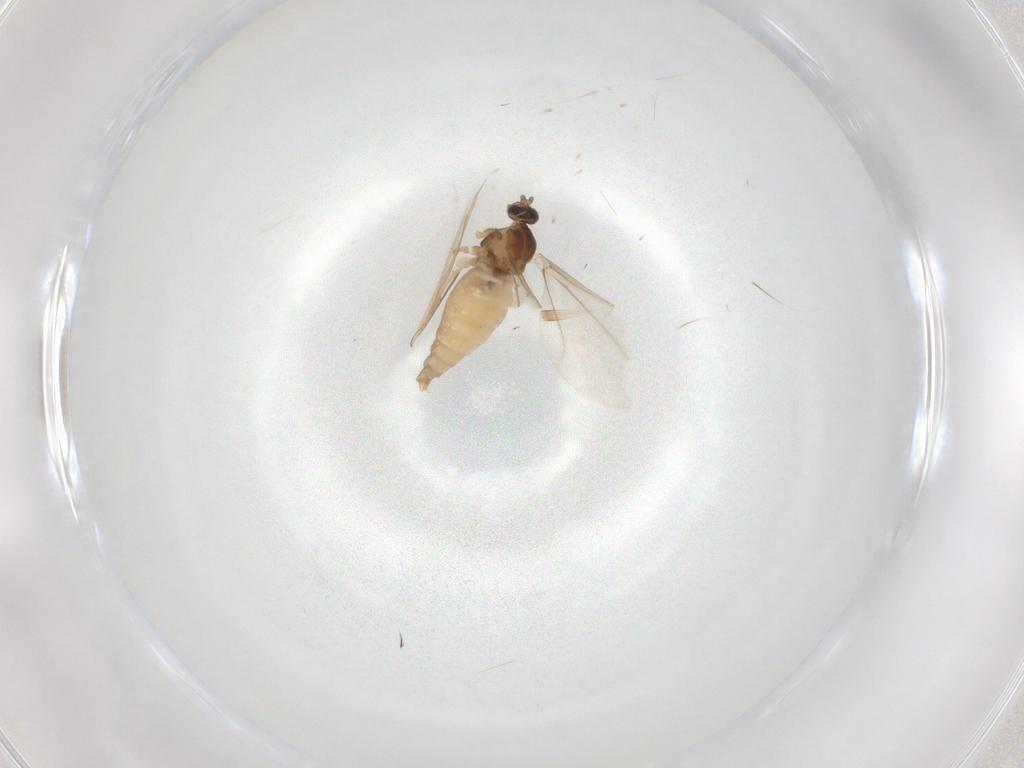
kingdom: Animalia
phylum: Arthropoda
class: Insecta
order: Diptera
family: Cecidomyiidae
